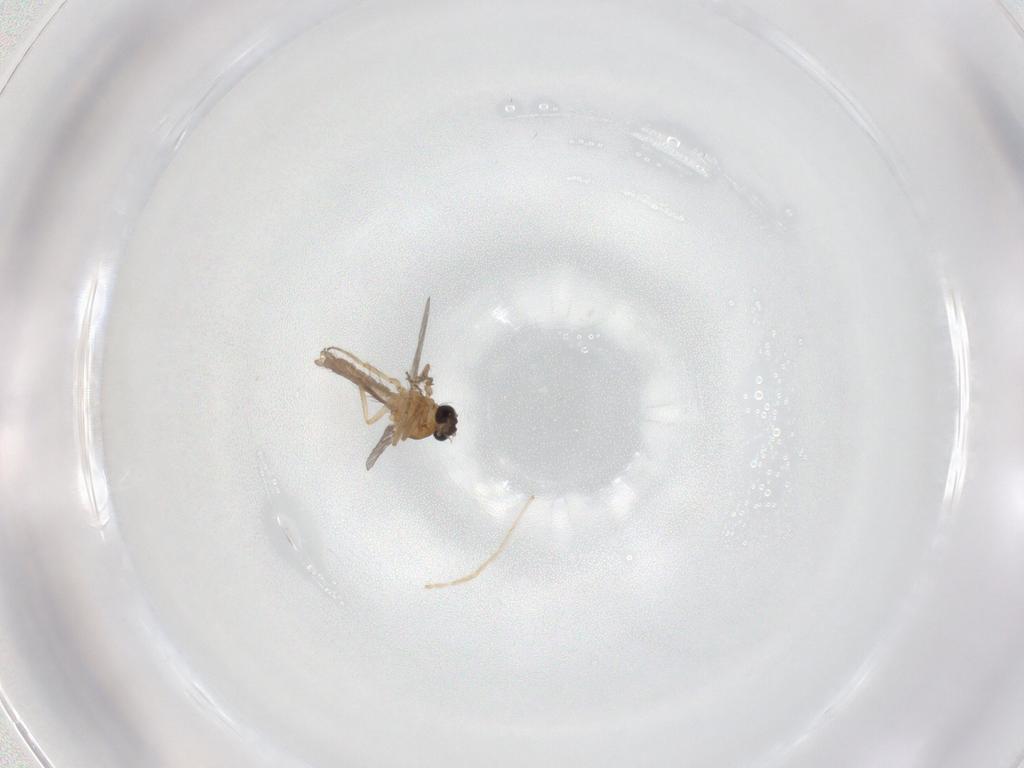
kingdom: Animalia
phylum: Arthropoda
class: Insecta
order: Diptera
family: Ceratopogonidae
